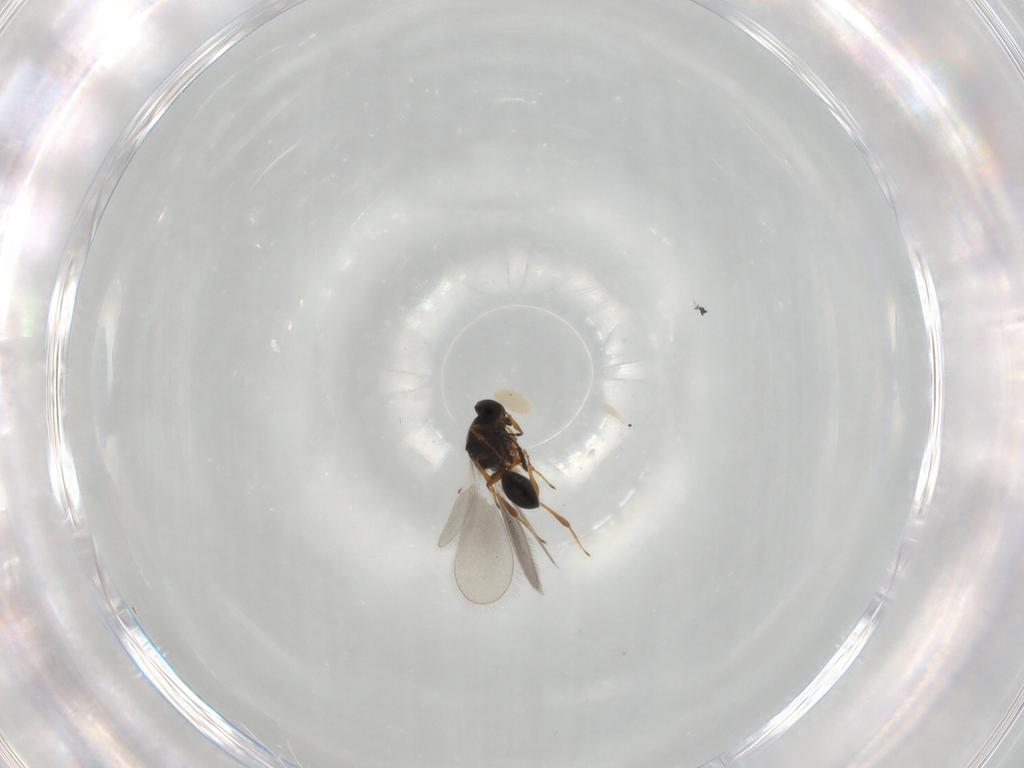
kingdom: Animalia
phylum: Arthropoda
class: Insecta
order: Hymenoptera
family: Platygastridae
